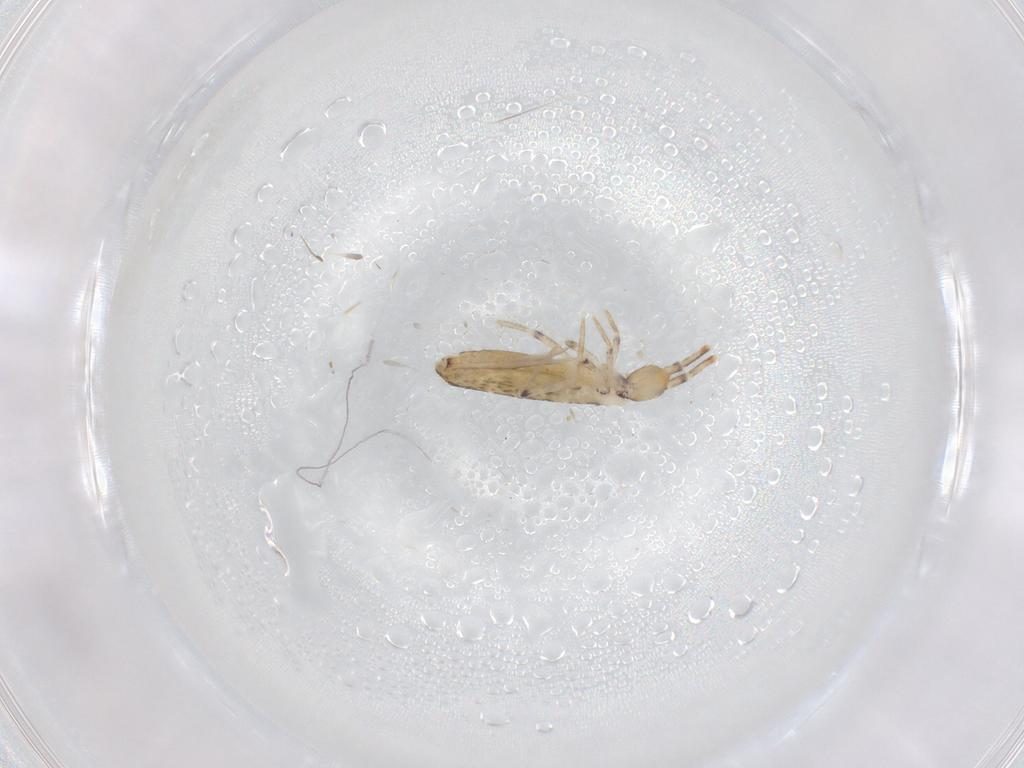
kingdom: Animalia
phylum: Arthropoda
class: Collembola
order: Entomobryomorpha
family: Entomobryidae
